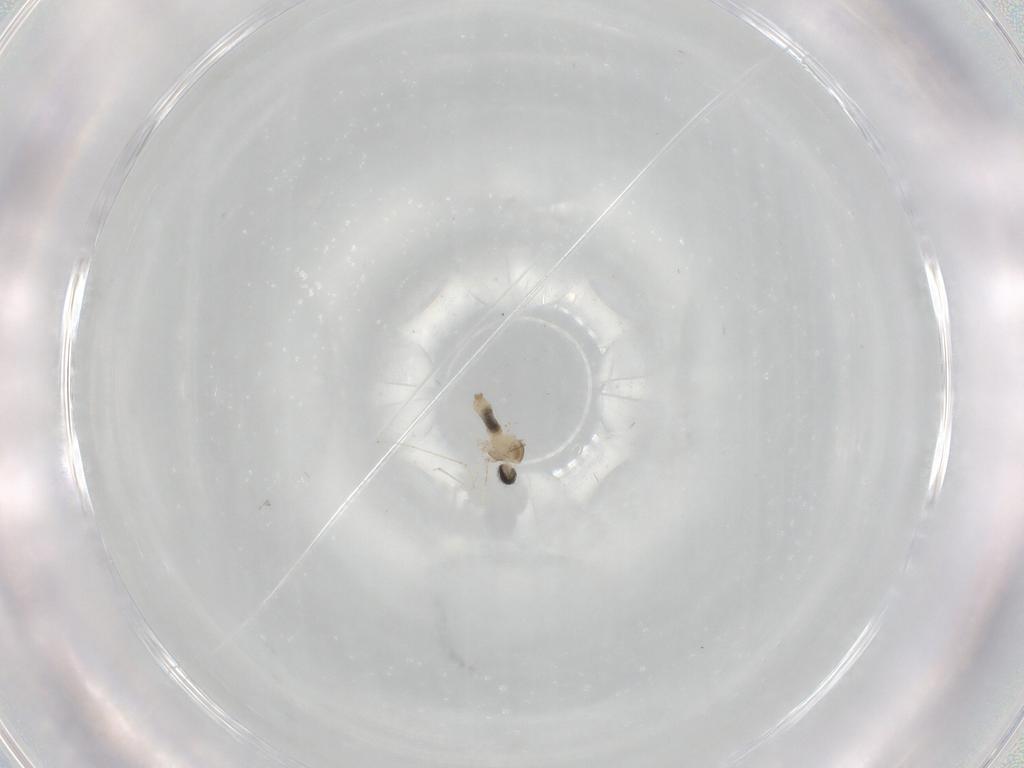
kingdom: Animalia
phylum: Arthropoda
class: Insecta
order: Diptera
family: Cecidomyiidae
